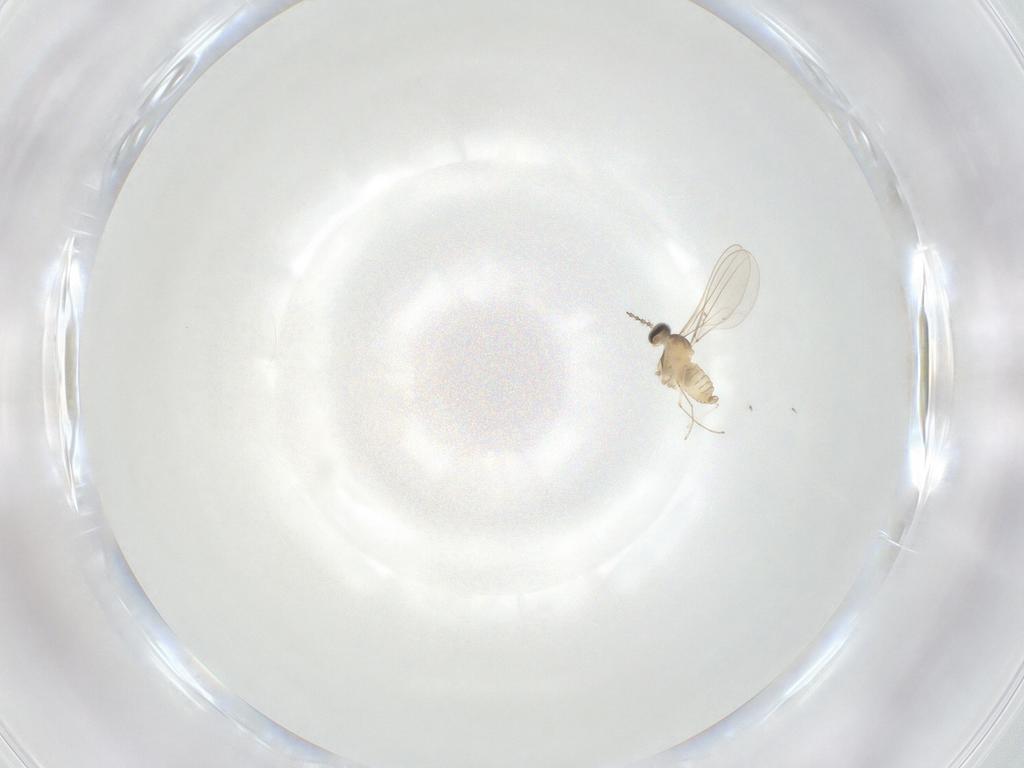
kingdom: Animalia
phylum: Arthropoda
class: Insecta
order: Diptera
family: Cecidomyiidae
